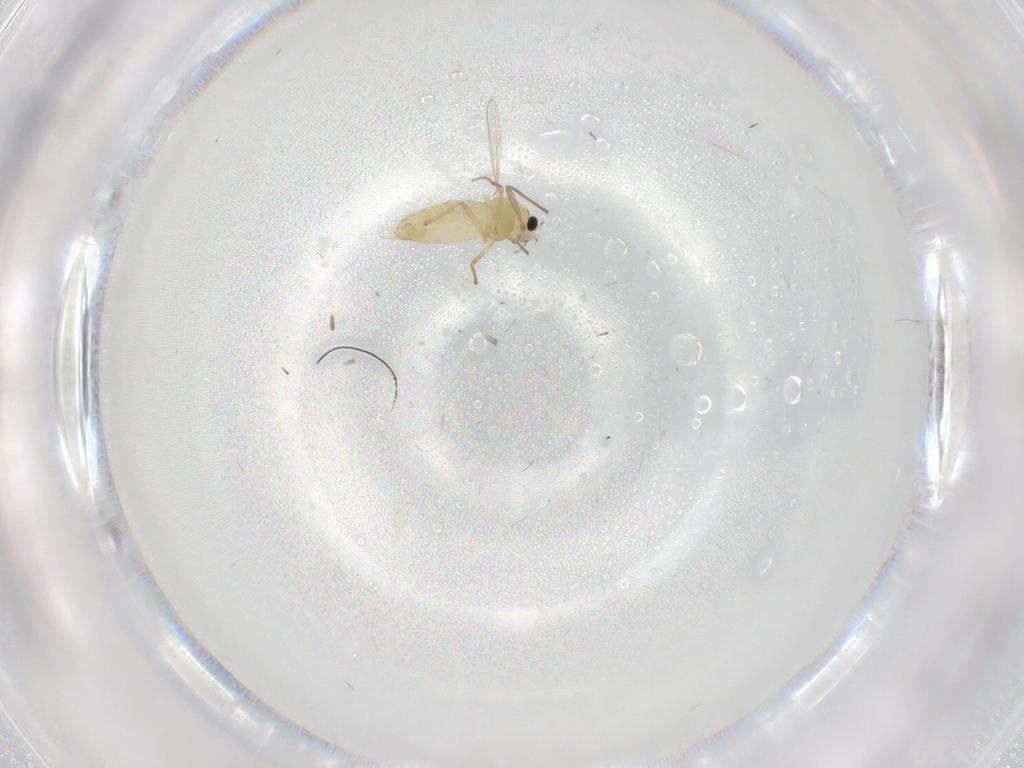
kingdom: Animalia
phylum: Arthropoda
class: Insecta
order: Diptera
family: Chironomidae
